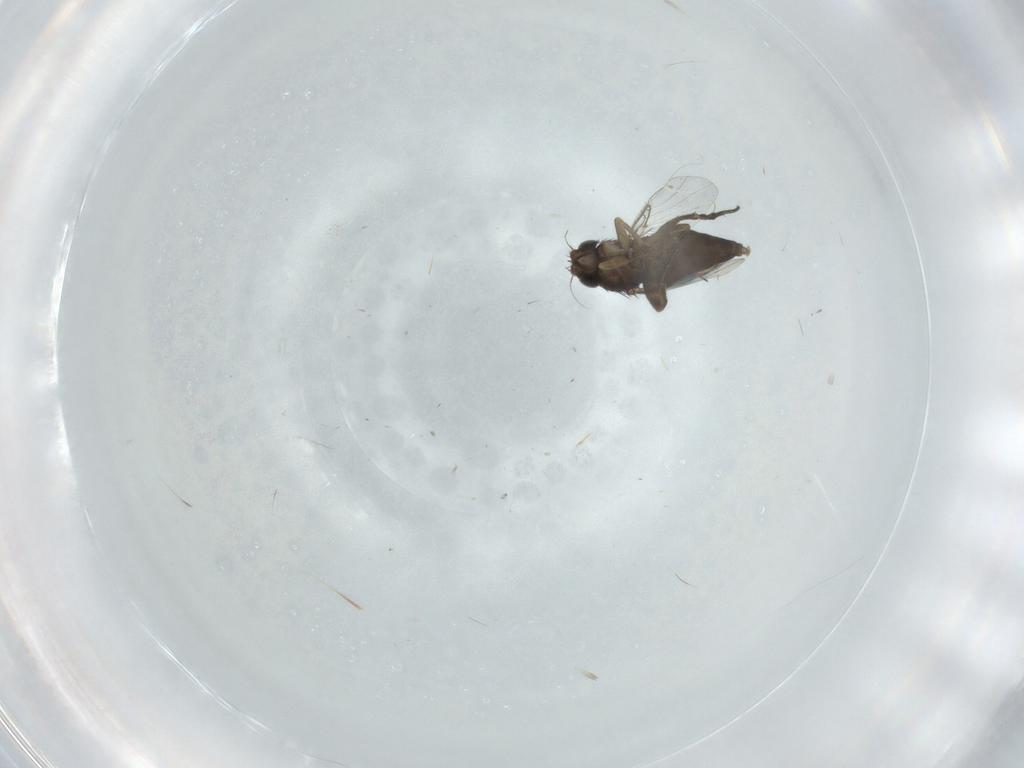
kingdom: Animalia
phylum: Arthropoda
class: Insecta
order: Diptera
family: Phoridae
